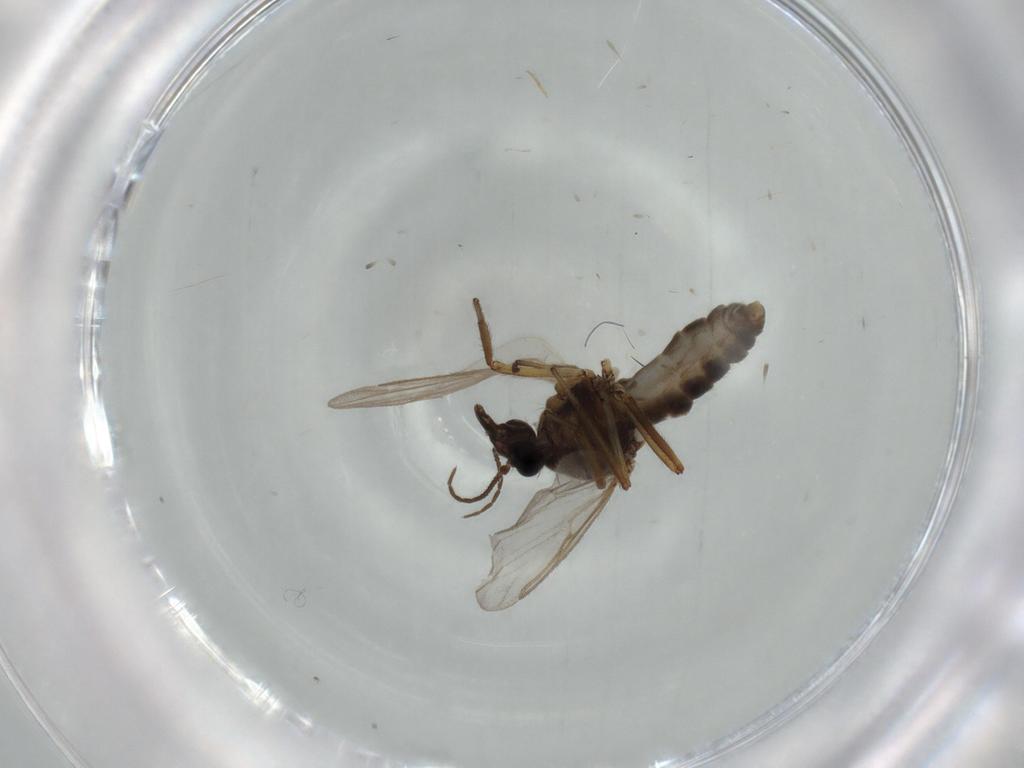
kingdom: Animalia
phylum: Arthropoda
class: Insecta
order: Diptera
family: Ceratopogonidae
